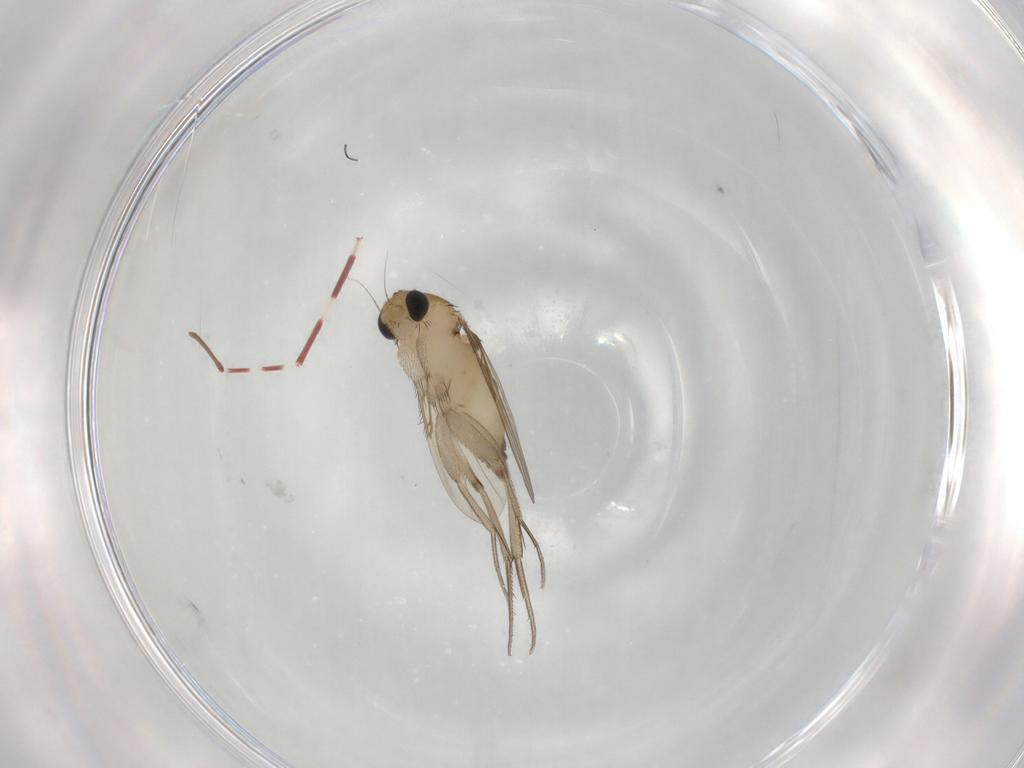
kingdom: Animalia
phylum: Arthropoda
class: Insecta
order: Diptera
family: Phoridae
